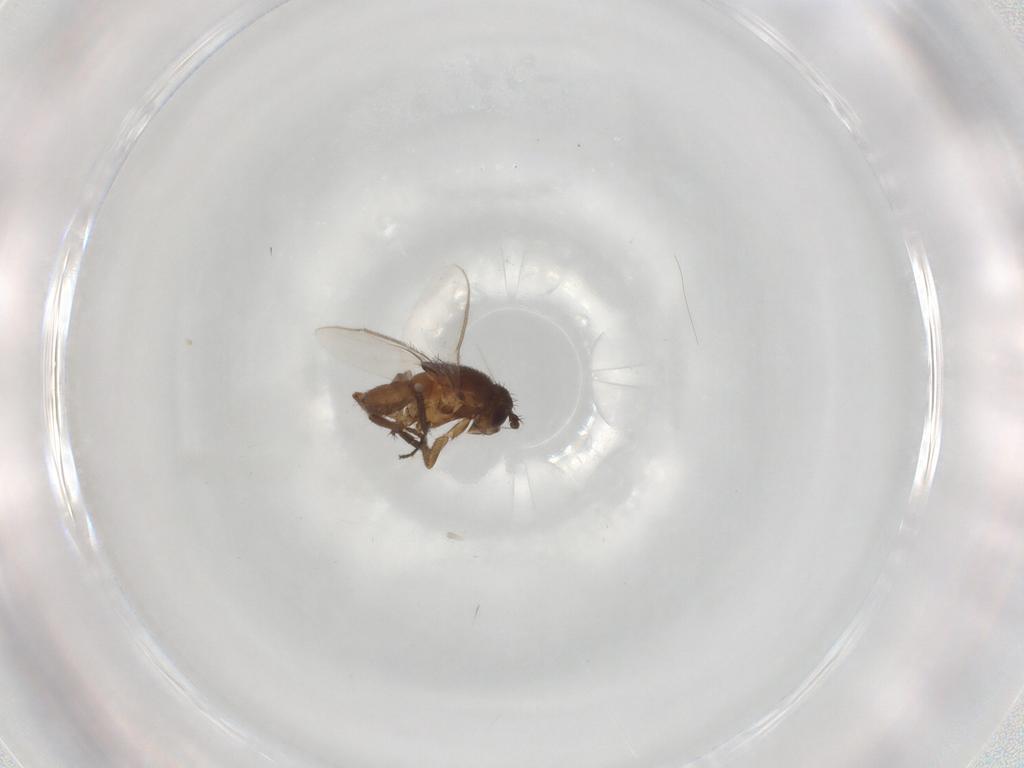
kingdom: Animalia
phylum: Arthropoda
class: Insecta
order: Diptera
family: Sphaeroceridae
